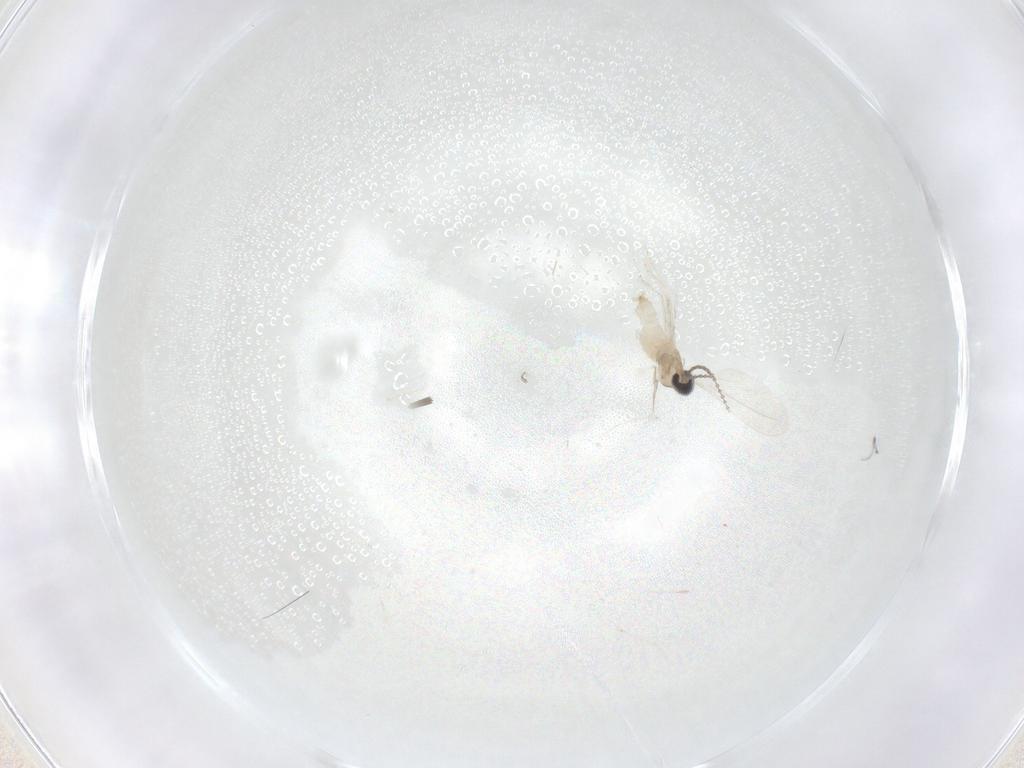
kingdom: Animalia
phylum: Arthropoda
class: Insecta
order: Diptera
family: Cecidomyiidae
